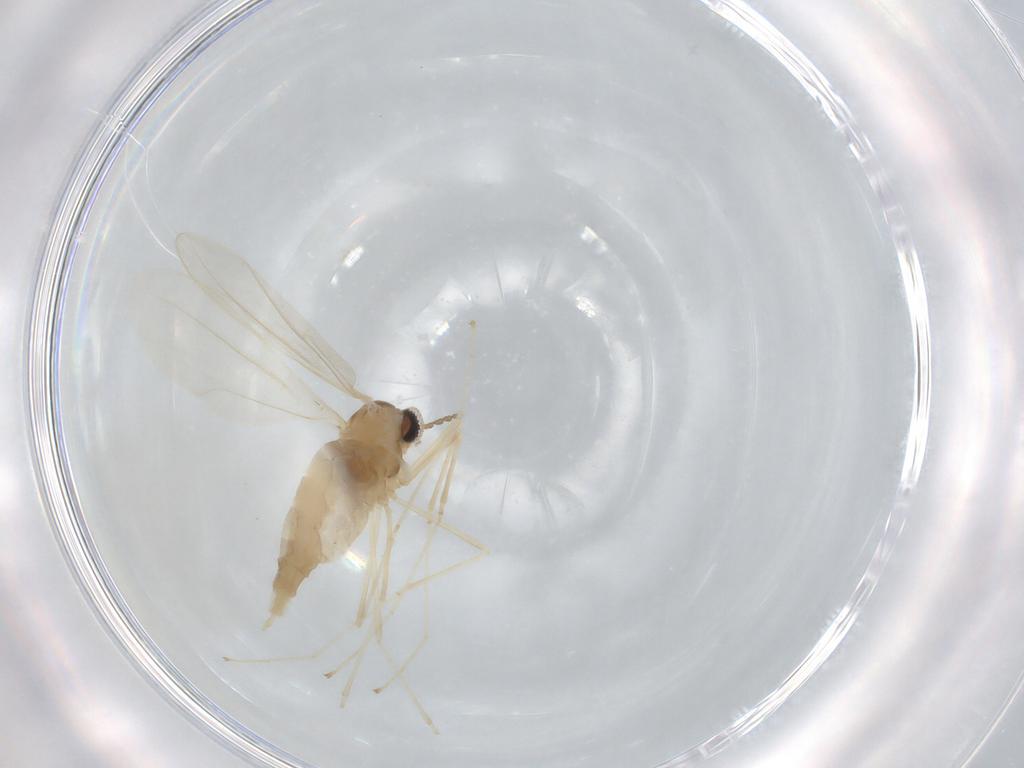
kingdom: Animalia
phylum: Arthropoda
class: Insecta
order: Diptera
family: Cecidomyiidae
